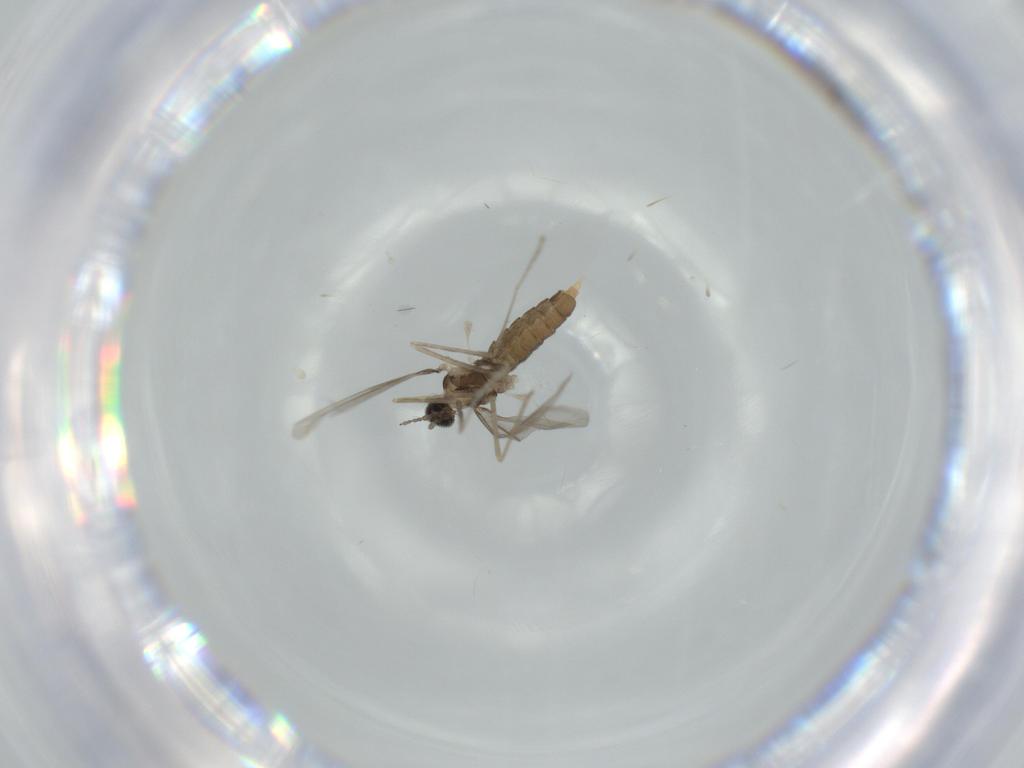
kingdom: Animalia
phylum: Arthropoda
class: Insecta
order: Diptera
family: Cecidomyiidae
